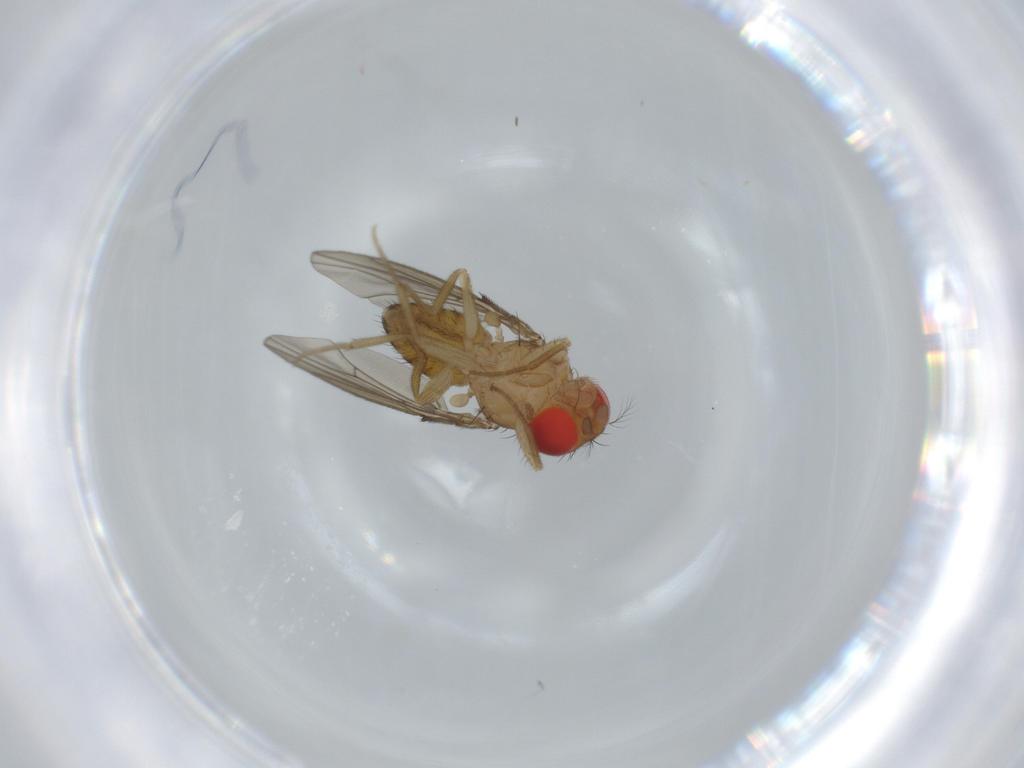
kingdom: Animalia
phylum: Arthropoda
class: Insecta
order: Diptera
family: Drosophilidae
